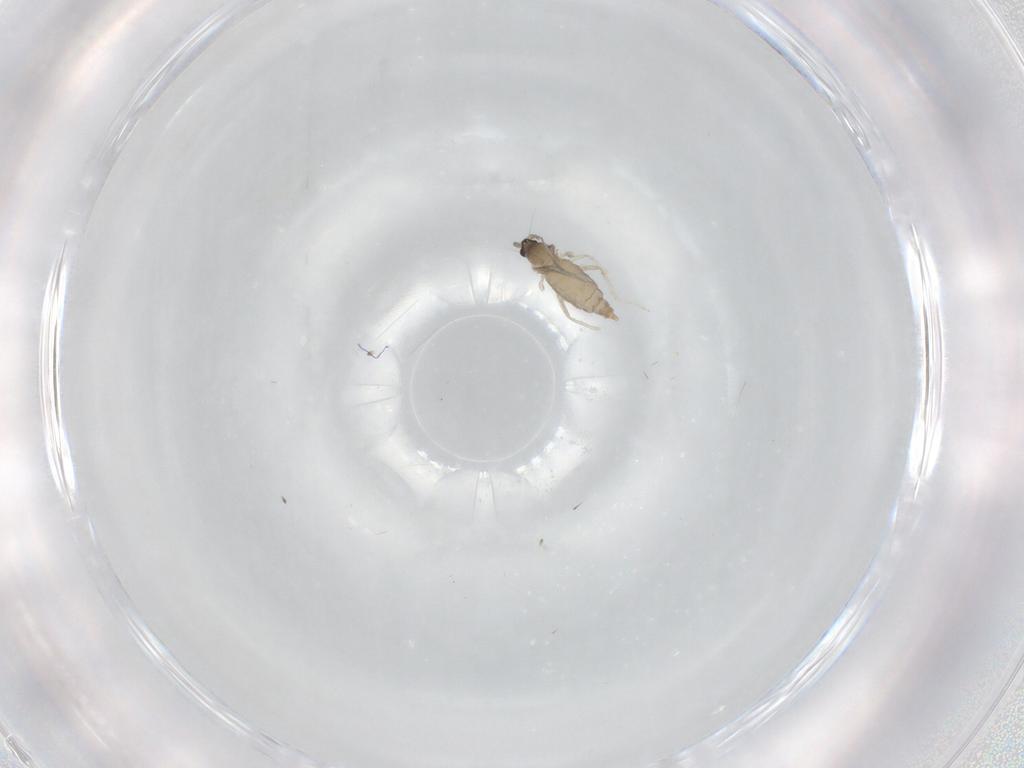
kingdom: Animalia
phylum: Arthropoda
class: Insecta
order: Diptera
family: Cecidomyiidae
